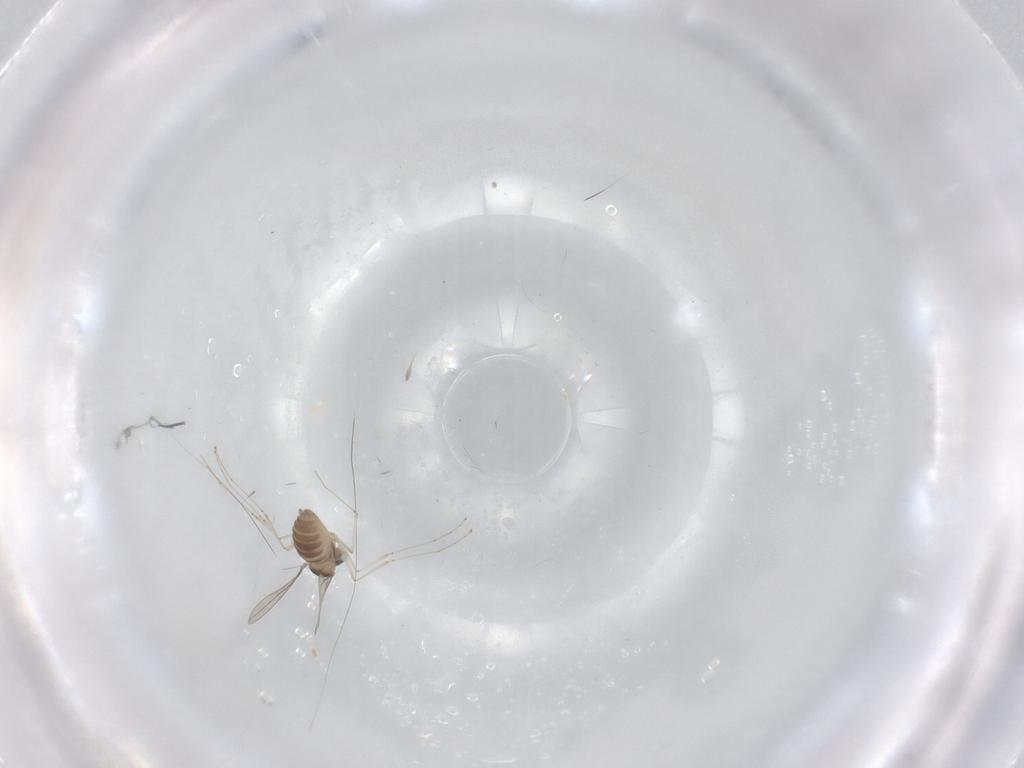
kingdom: Animalia
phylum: Arthropoda
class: Insecta
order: Diptera
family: Cecidomyiidae
